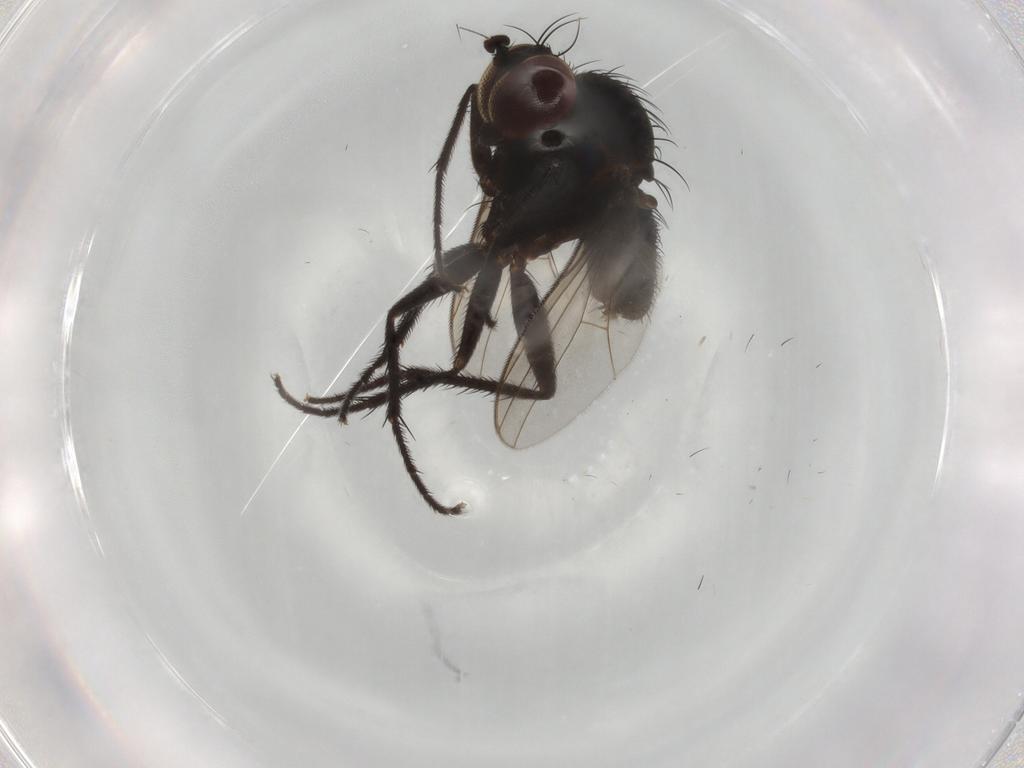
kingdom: Animalia
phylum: Arthropoda
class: Insecta
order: Diptera
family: Dolichopodidae
